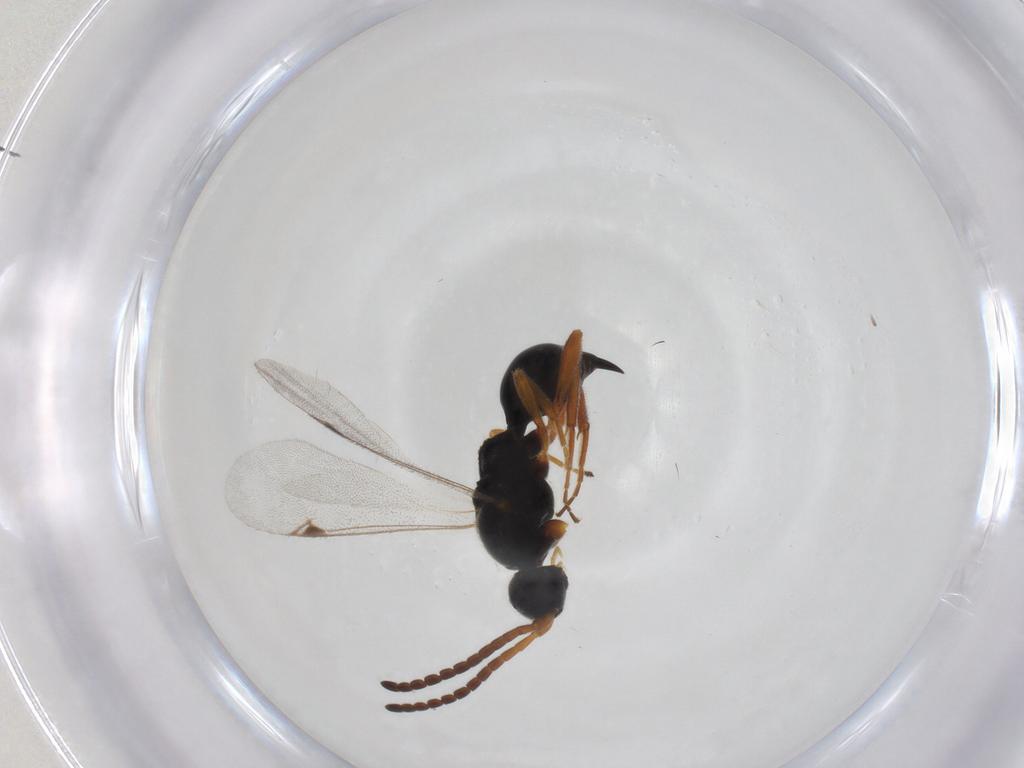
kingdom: Animalia
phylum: Arthropoda
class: Insecta
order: Hymenoptera
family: Proctotrupidae
